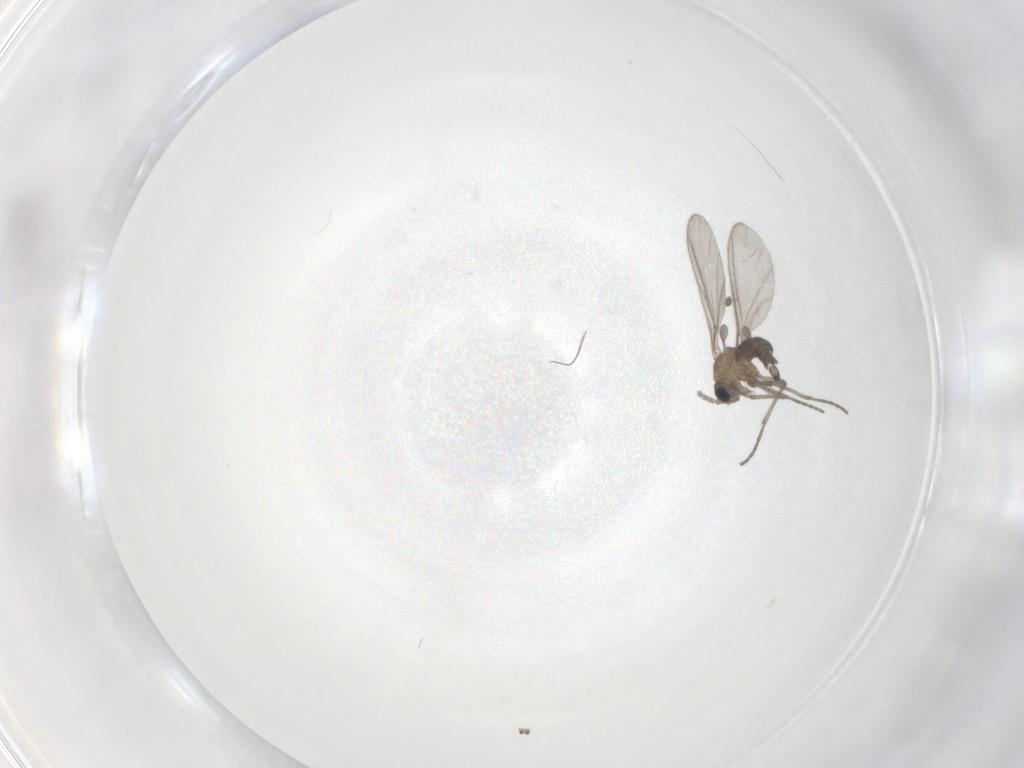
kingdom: Animalia
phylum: Arthropoda
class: Insecta
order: Diptera
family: Sciaridae
